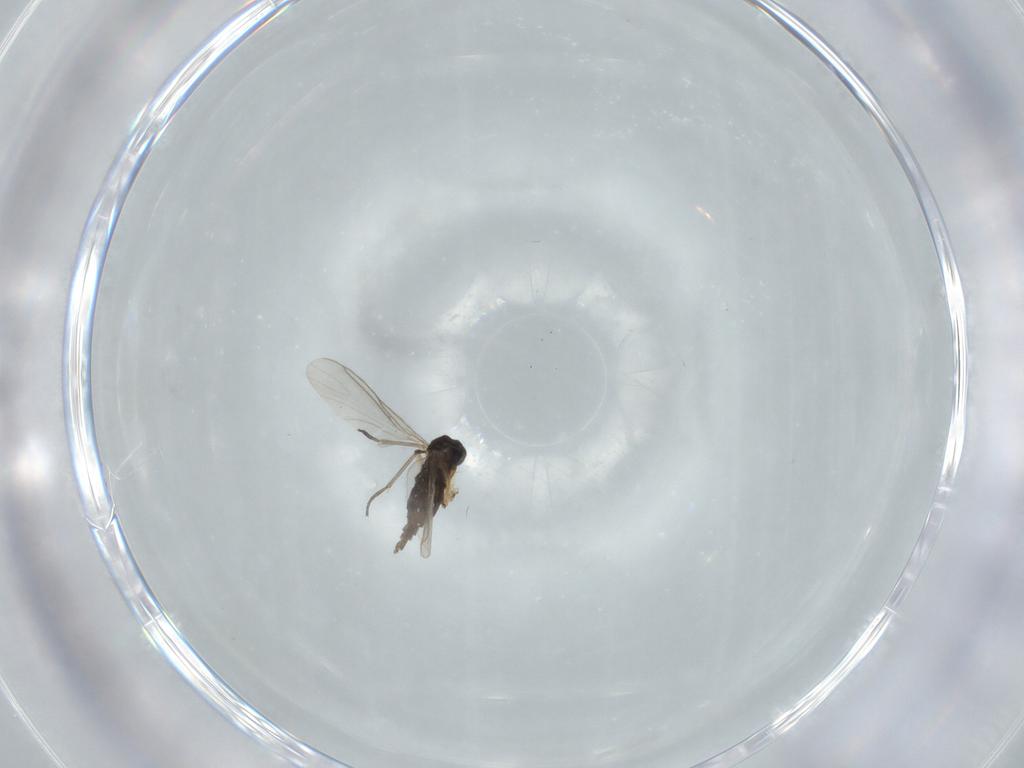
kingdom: Animalia
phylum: Arthropoda
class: Insecta
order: Diptera
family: Sciaridae
